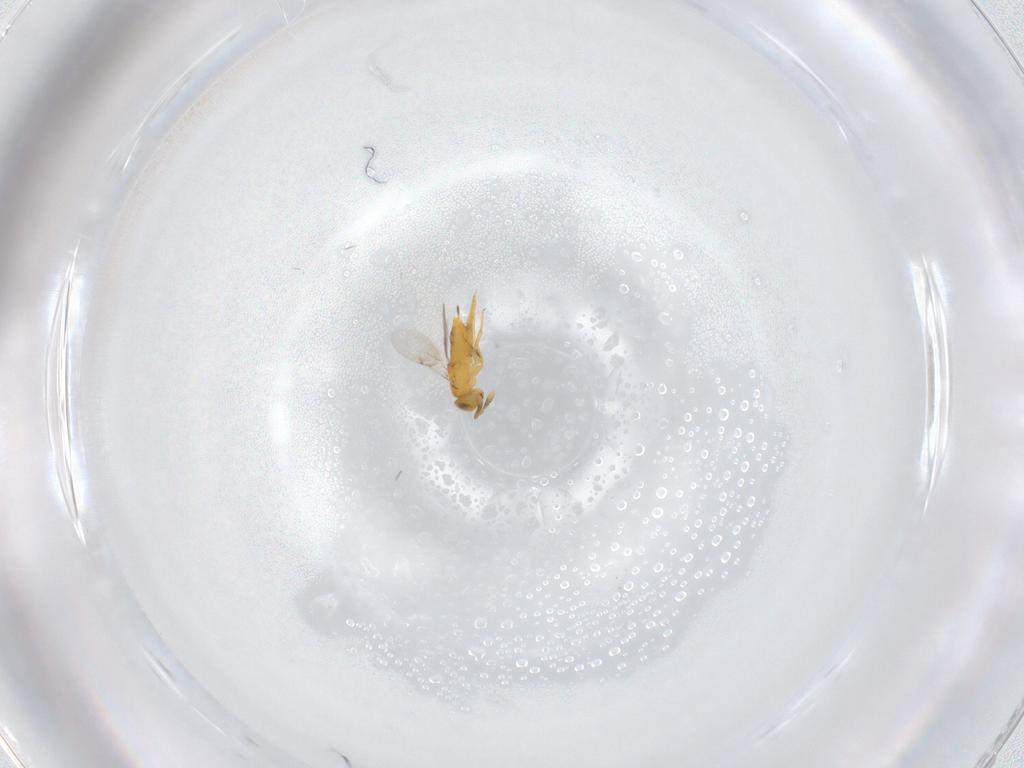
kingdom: Animalia
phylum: Arthropoda
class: Insecta
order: Hymenoptera
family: Encyrtidae
